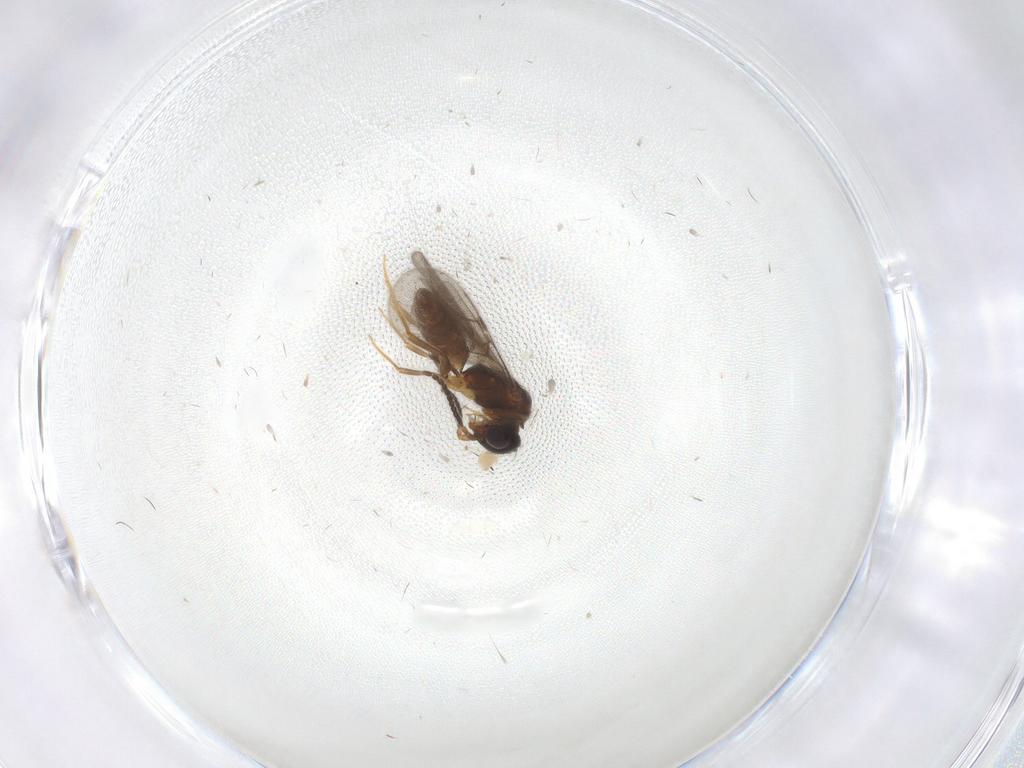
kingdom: Animalia
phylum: Arthropoda
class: Insecta
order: Hymenoptera
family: Bethylidae
